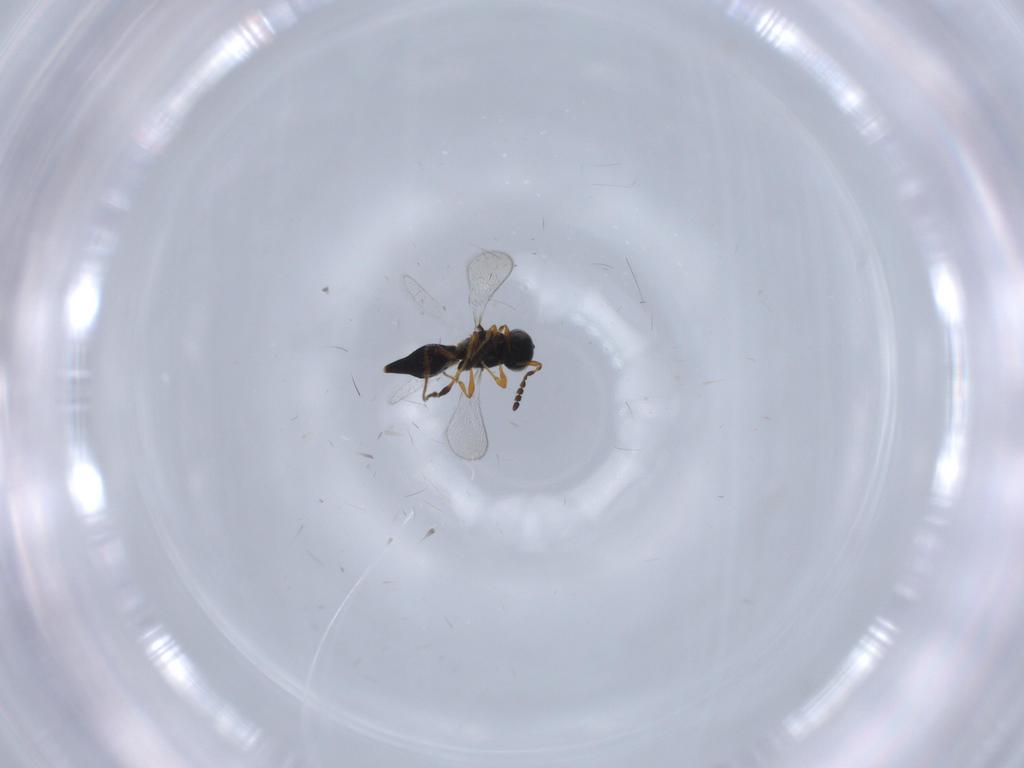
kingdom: Animalia
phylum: Arthropoda
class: Insecta
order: Hymenoptera
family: Platygastridae
